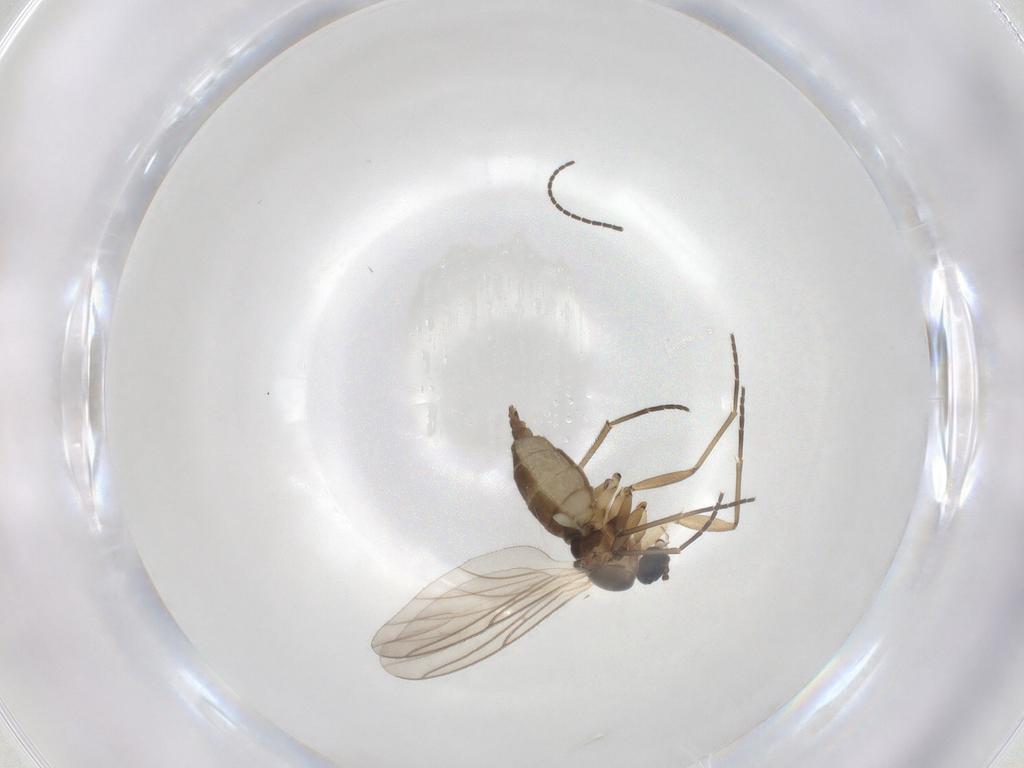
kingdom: Animalia
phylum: Arthropoda
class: Insecta
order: Diptera
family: Sciaridae
